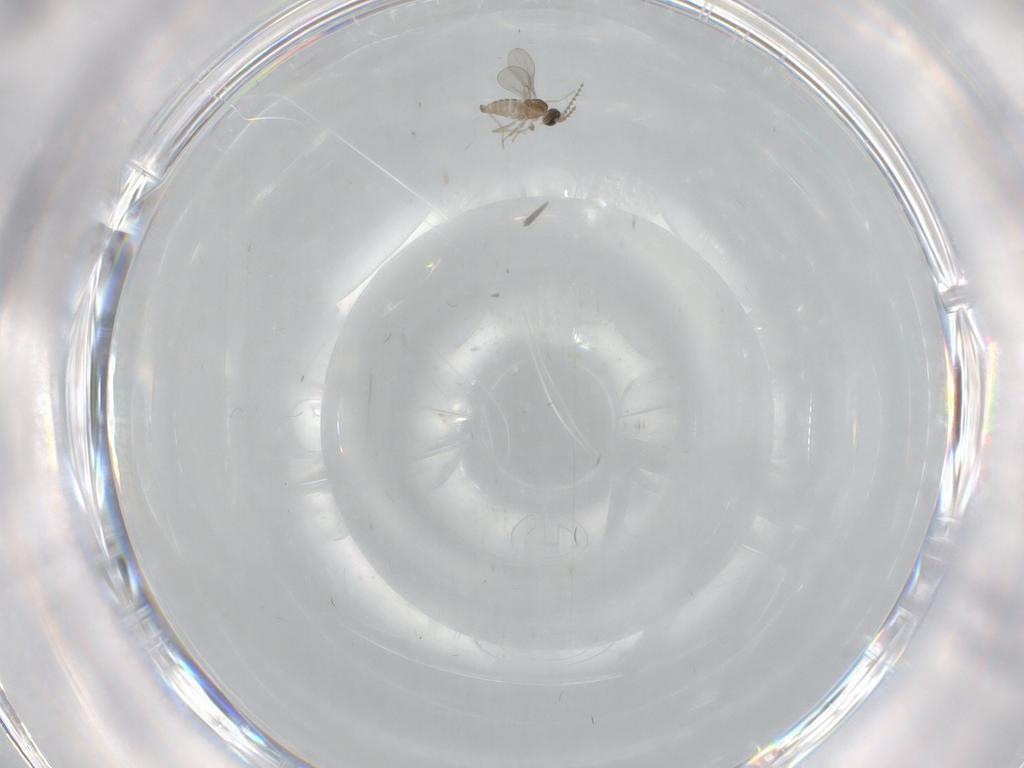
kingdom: Animalia
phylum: Arthropoda
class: Insecta
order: Diptera
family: Cecidomyiidae
